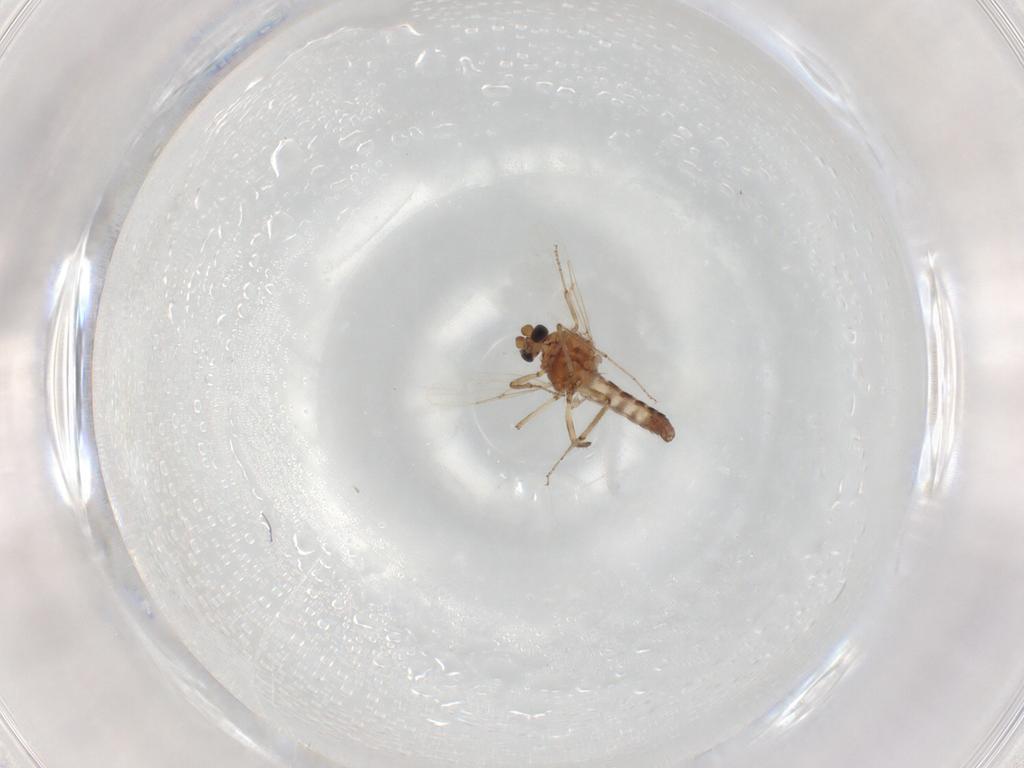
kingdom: Animalia
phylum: Arthropoda
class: Insecta
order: Diptera
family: Ceratopogonidae
